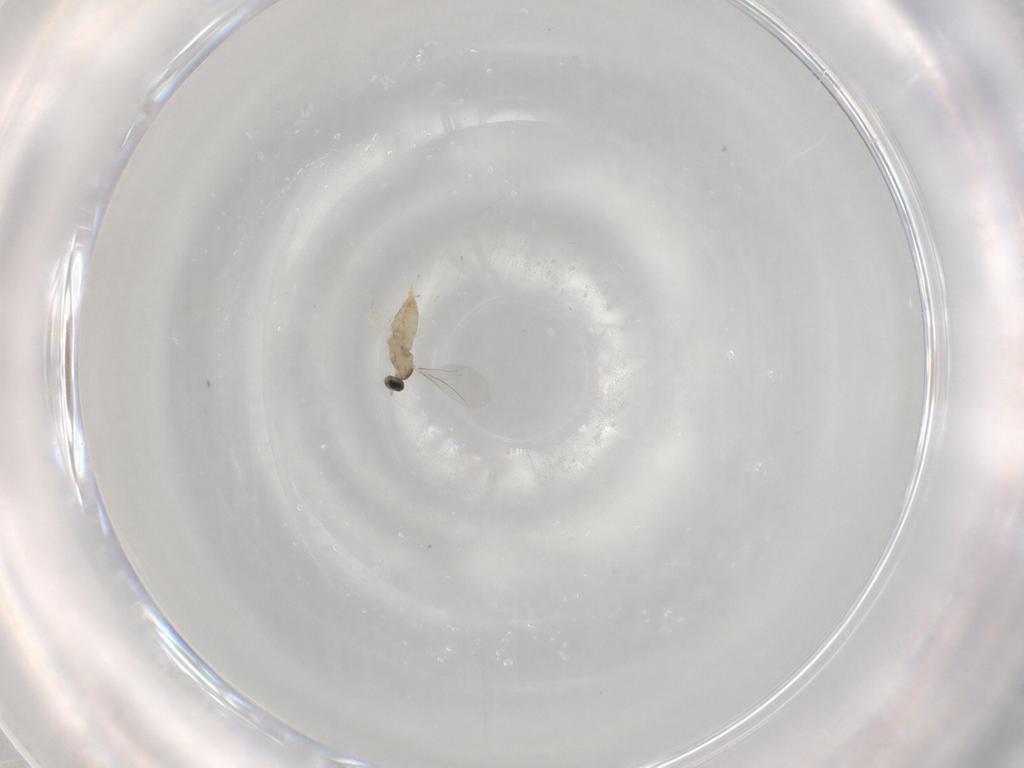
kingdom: Animalia
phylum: Arthropoda
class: Insecta
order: Diptera
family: Cecidomyiidae
